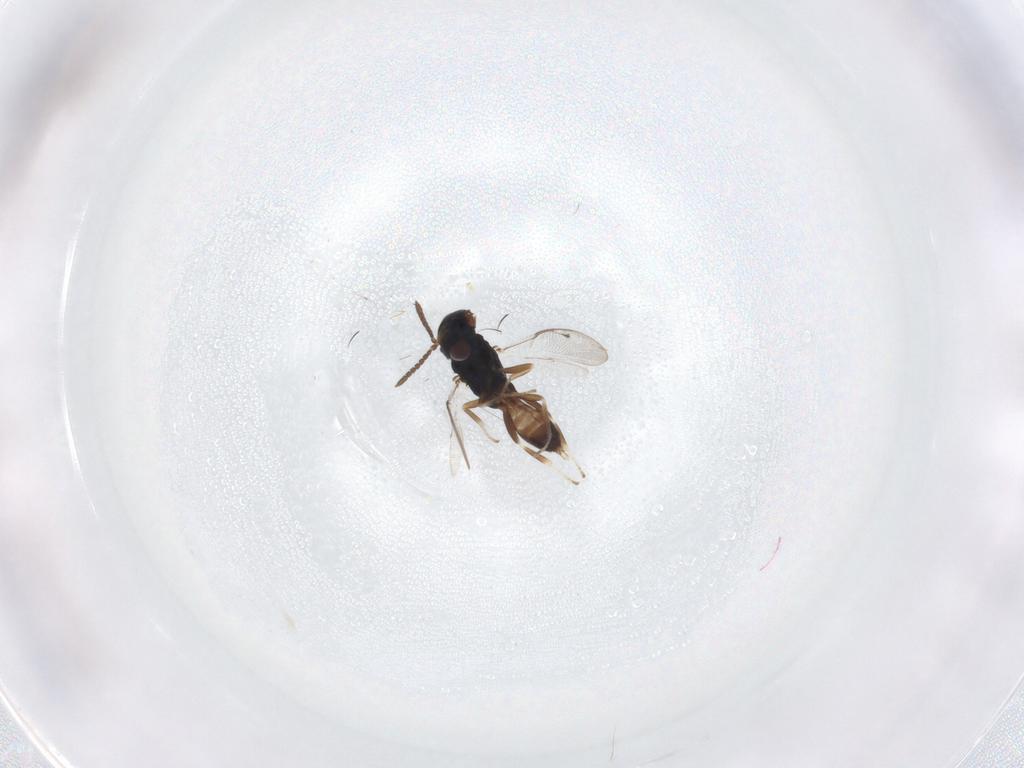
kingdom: Animalia
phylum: Arthropoda
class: Insecta
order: Hymenoptera
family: Pteromalidae
